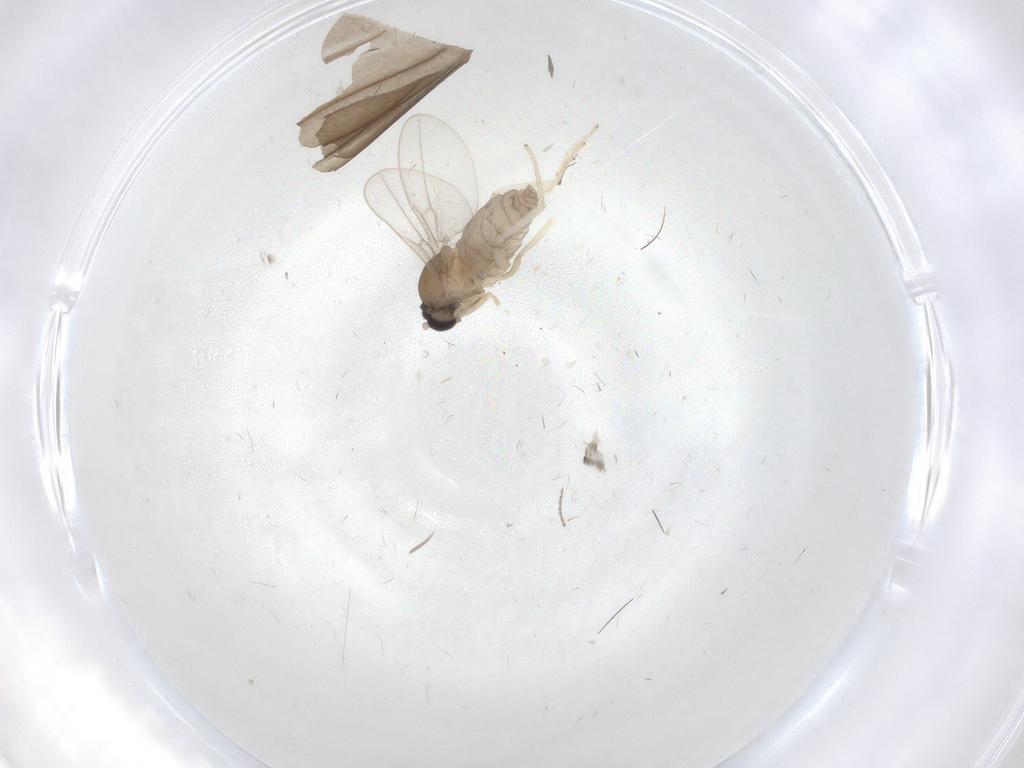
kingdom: Animalia
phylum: Arthropoda
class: Insecta
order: Diptera
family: Cecidomyiidae
